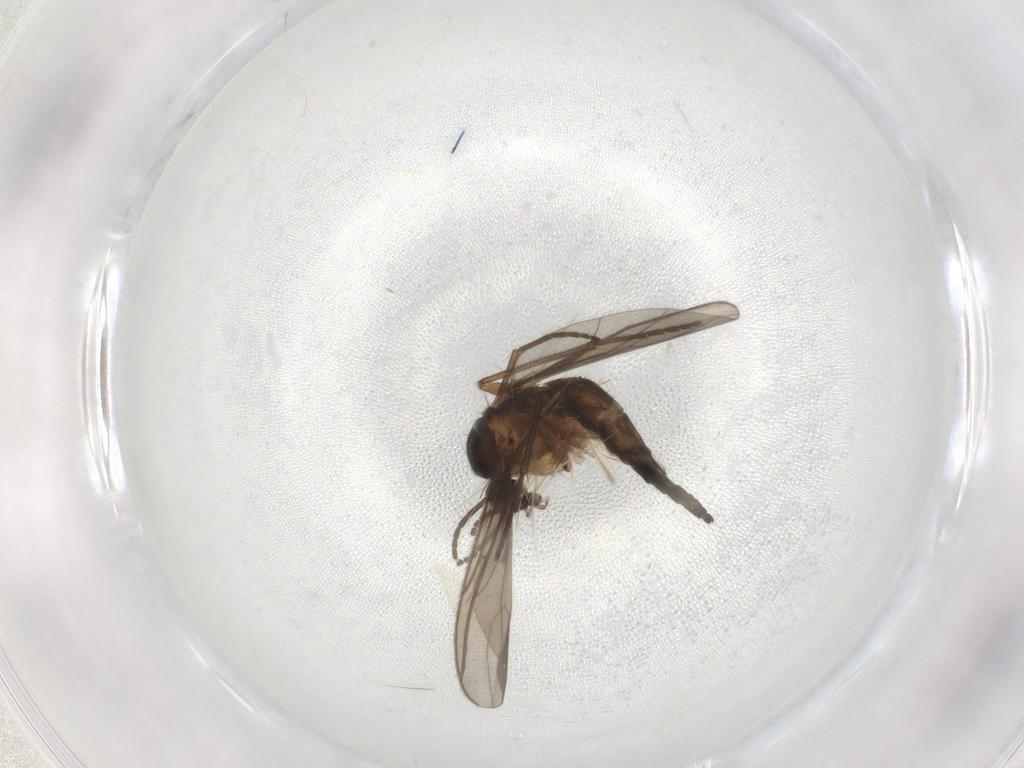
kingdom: Animalia
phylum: Arthropoda
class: Insecta
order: Diptera
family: Sciaridae
